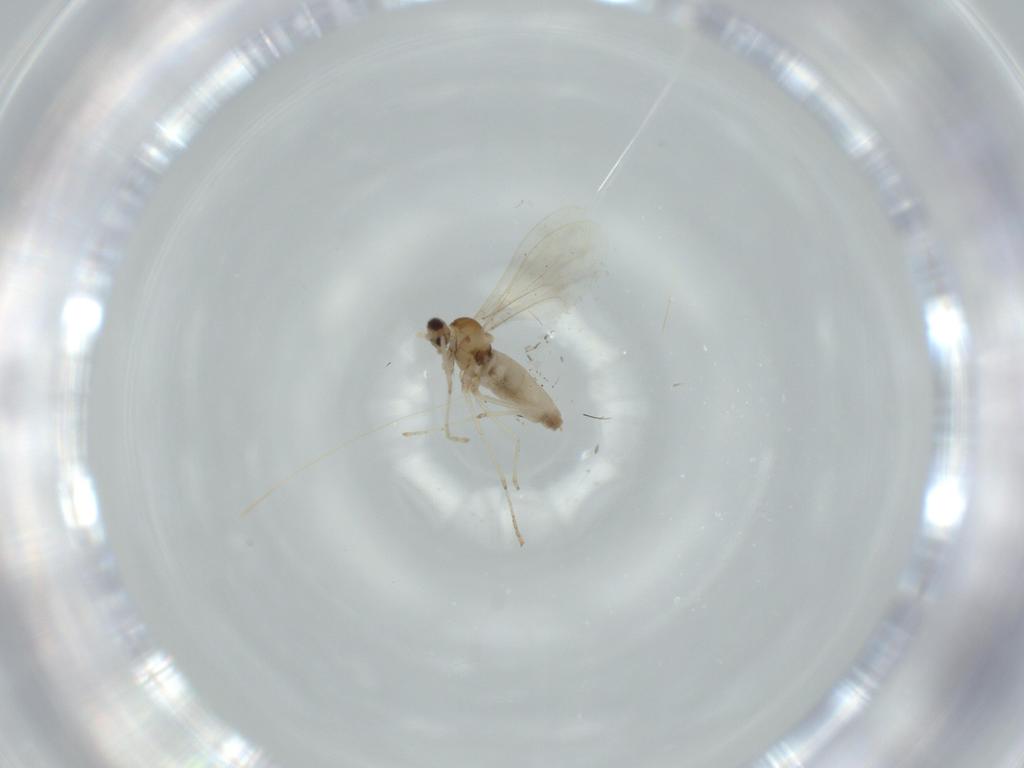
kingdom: Animalia
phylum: Arthropoda
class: Insecta
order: Diptera
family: Cecidomyiidae
